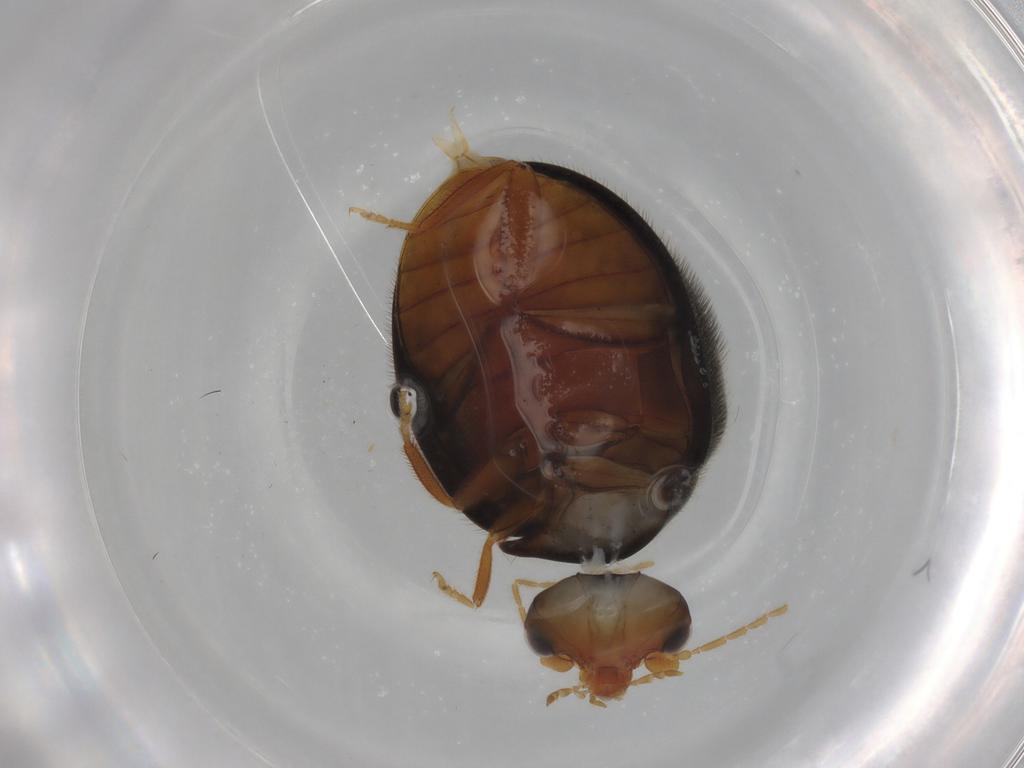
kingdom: Animalia
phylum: Arthropoda
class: Insecta
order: Coleoptera
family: Scirtidae
